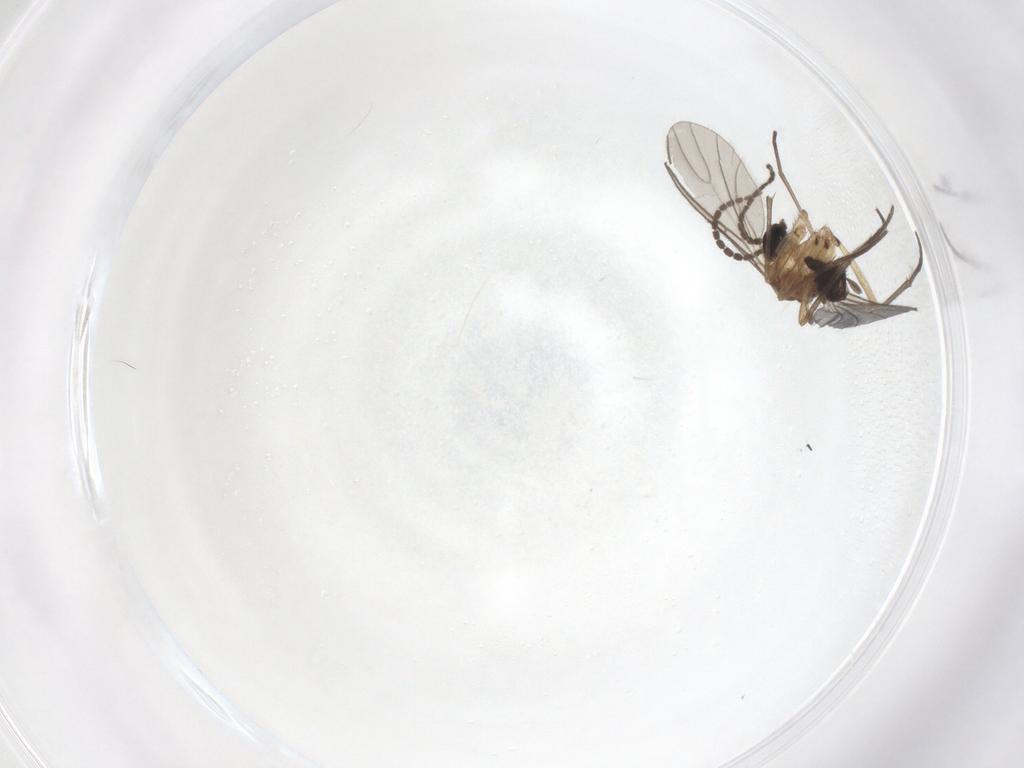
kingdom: Animalia
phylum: Arthropoda
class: Insecta
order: Diptera
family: Sciaridae
